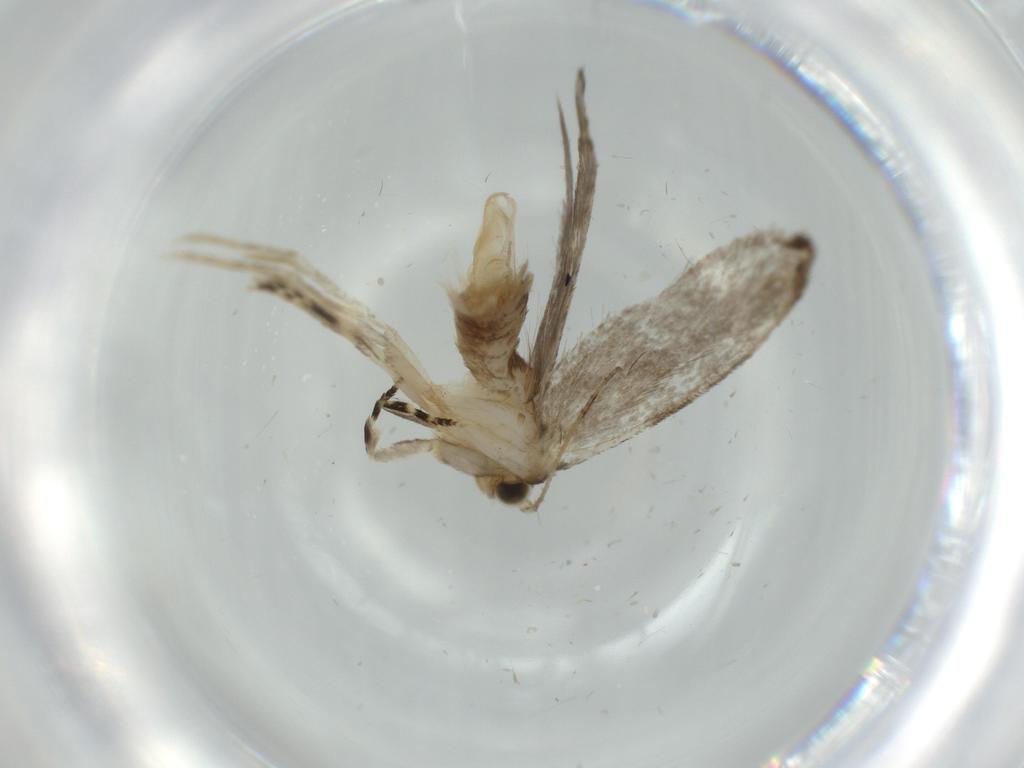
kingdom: Animalia
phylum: Arthropoda
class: Insecta
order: Lepidoptera
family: Tineidae
